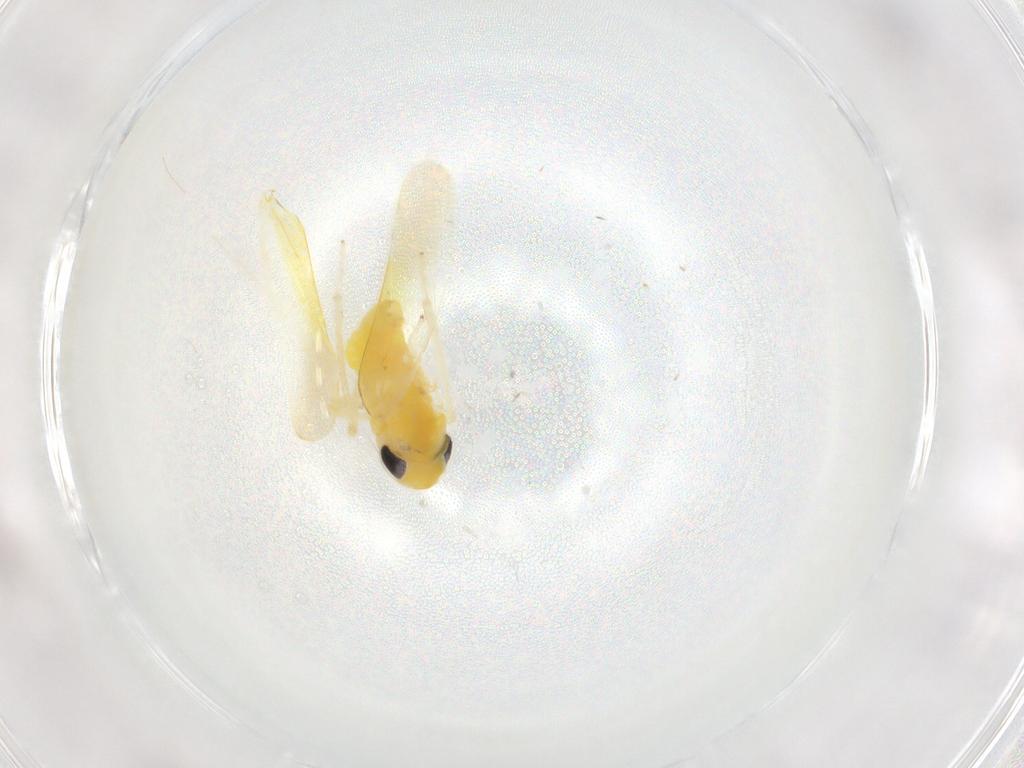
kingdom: Animalia
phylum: Arthropoda
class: Insecta
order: Hemiptera
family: Cicadellidae
